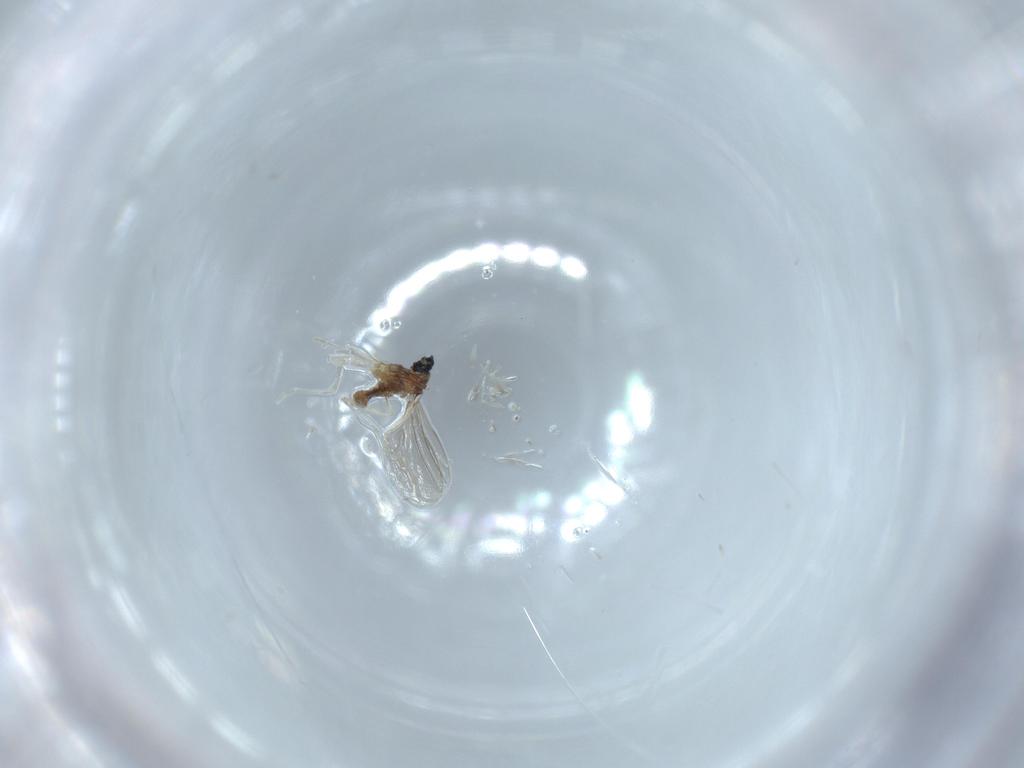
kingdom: Animalia
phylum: Arthropoda
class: Insecta
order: Diptera
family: Cecidomyiidae
